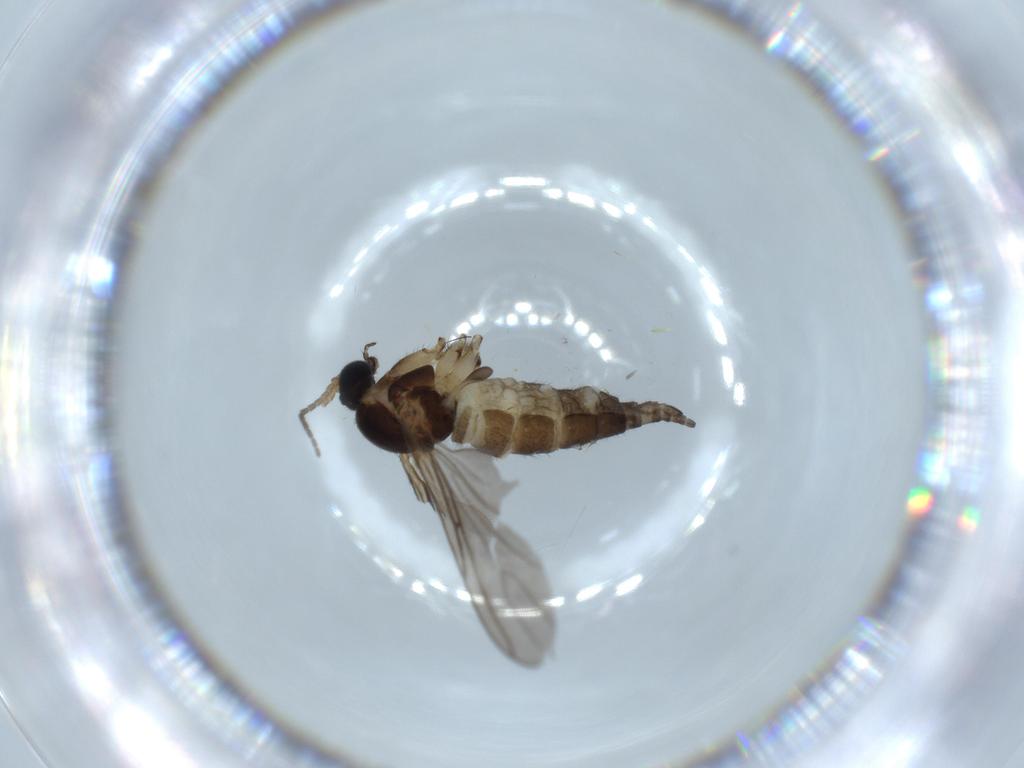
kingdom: Animalia
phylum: Arthropoda
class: Insecta
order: Diptera
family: Sciaridae
